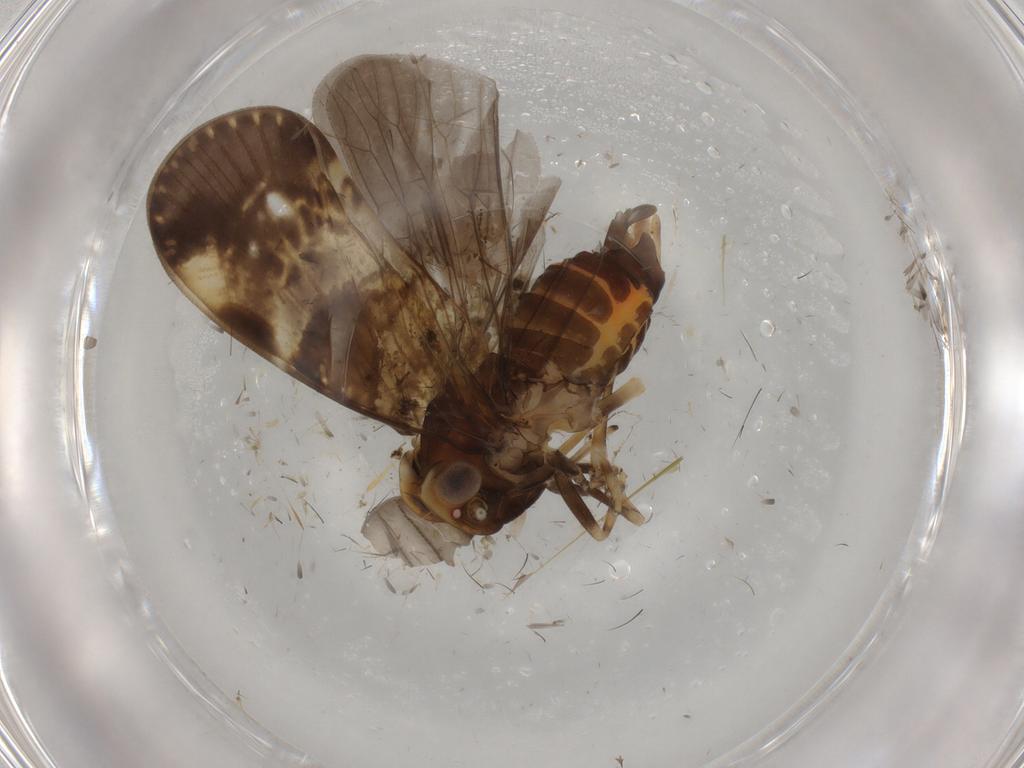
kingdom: Animalia
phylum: Arthropoda
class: Insecta
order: Hemiptera
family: Cixiidae
